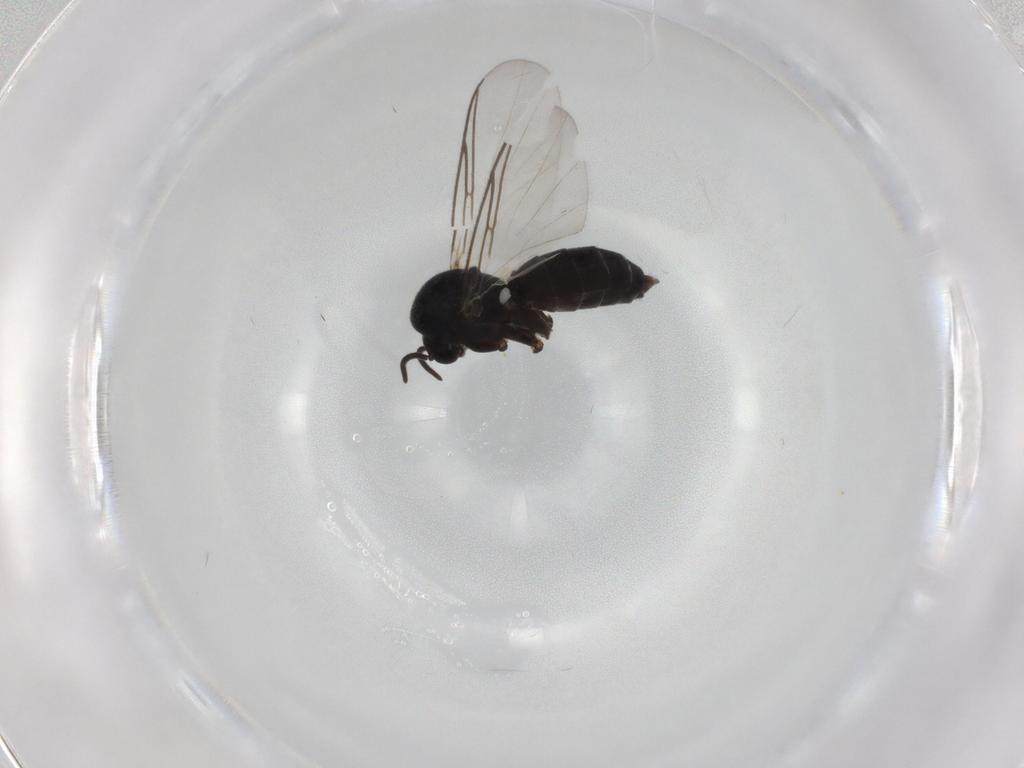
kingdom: Animalia
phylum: Arthropoda
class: Insecta
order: Diptera
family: Mycetophilidae
